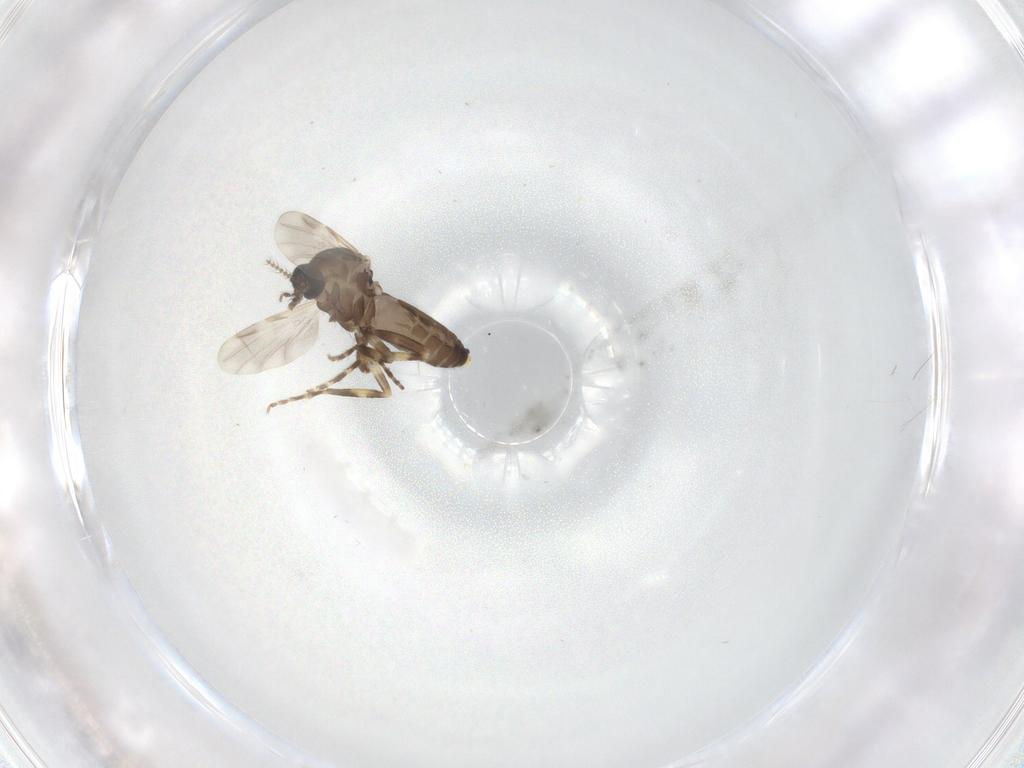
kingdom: Animalia
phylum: Arthropoda
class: Insecta
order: Diptera
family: Ceratopogonidae
